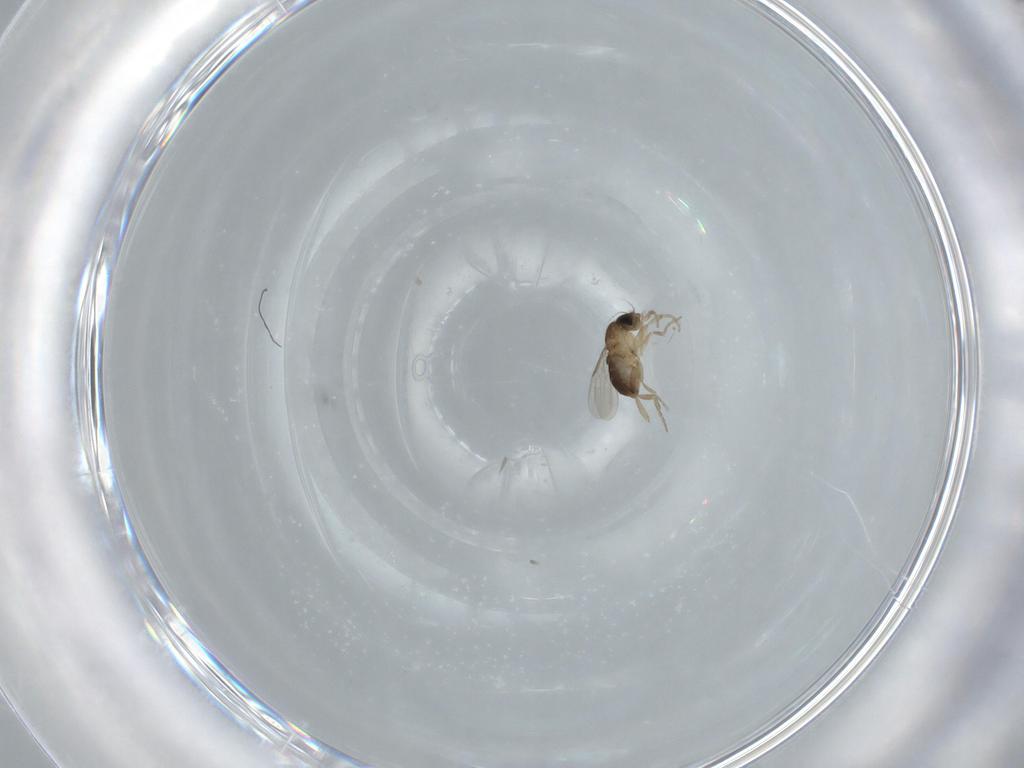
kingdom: Animalia
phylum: Arthropoda
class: Insecta
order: Diptera
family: Phoridae
